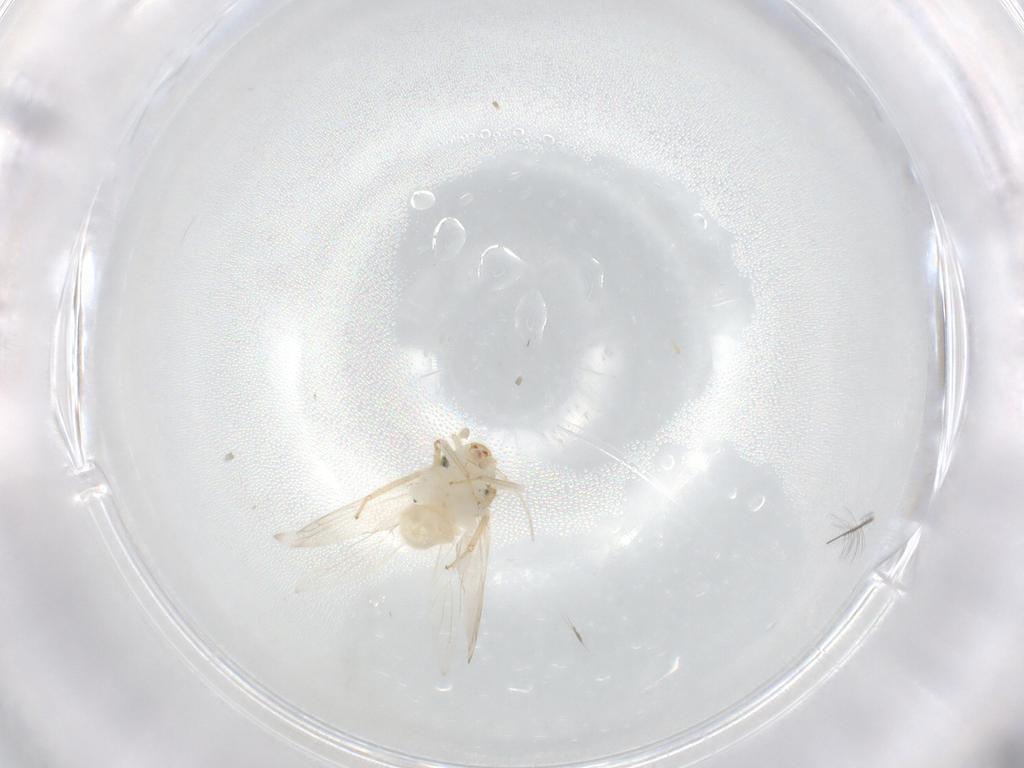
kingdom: Animalia
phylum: Arthropoda
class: Insecta
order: Psocodea
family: Lepidopsocidae
